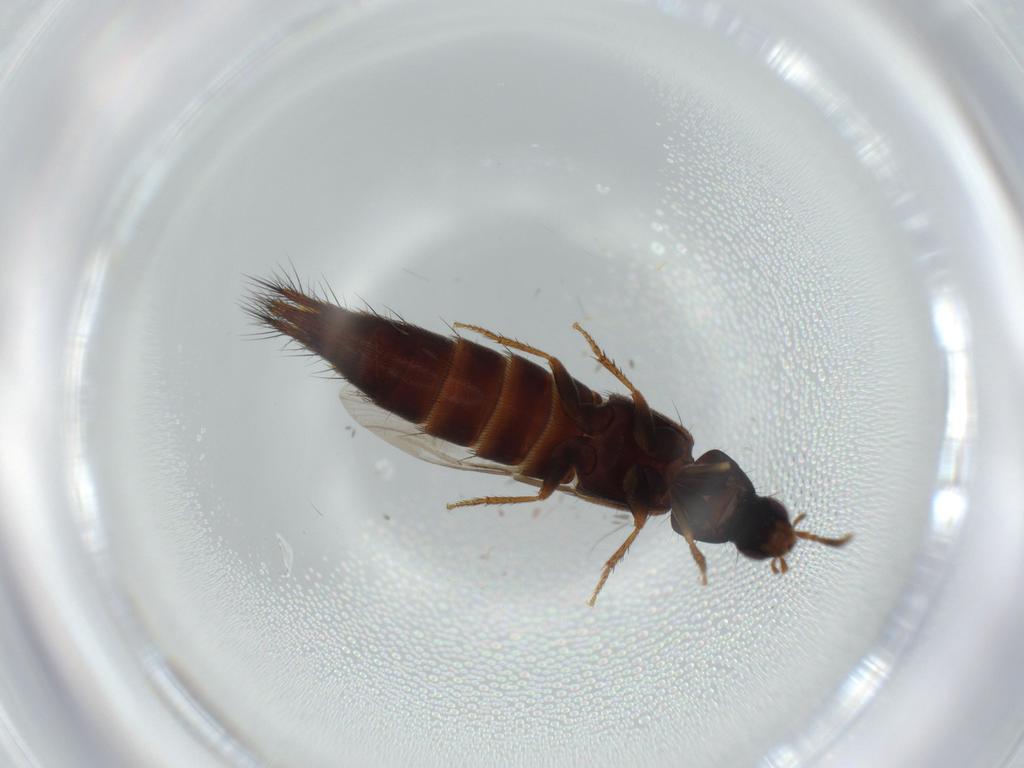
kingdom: Animalia
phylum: Arthropoda
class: Insecta
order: Coleoptera
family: Staphylinidae
